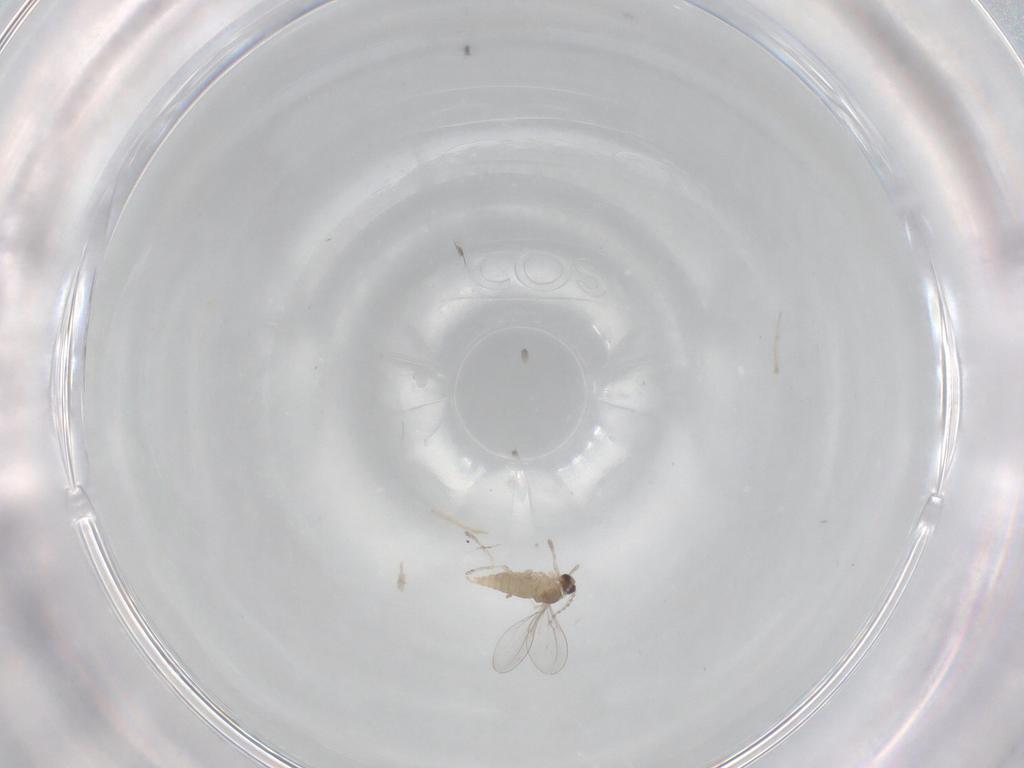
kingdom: Animalia
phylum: Arthropoda
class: Insecta
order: Diptera
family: Cecidomyiidae
